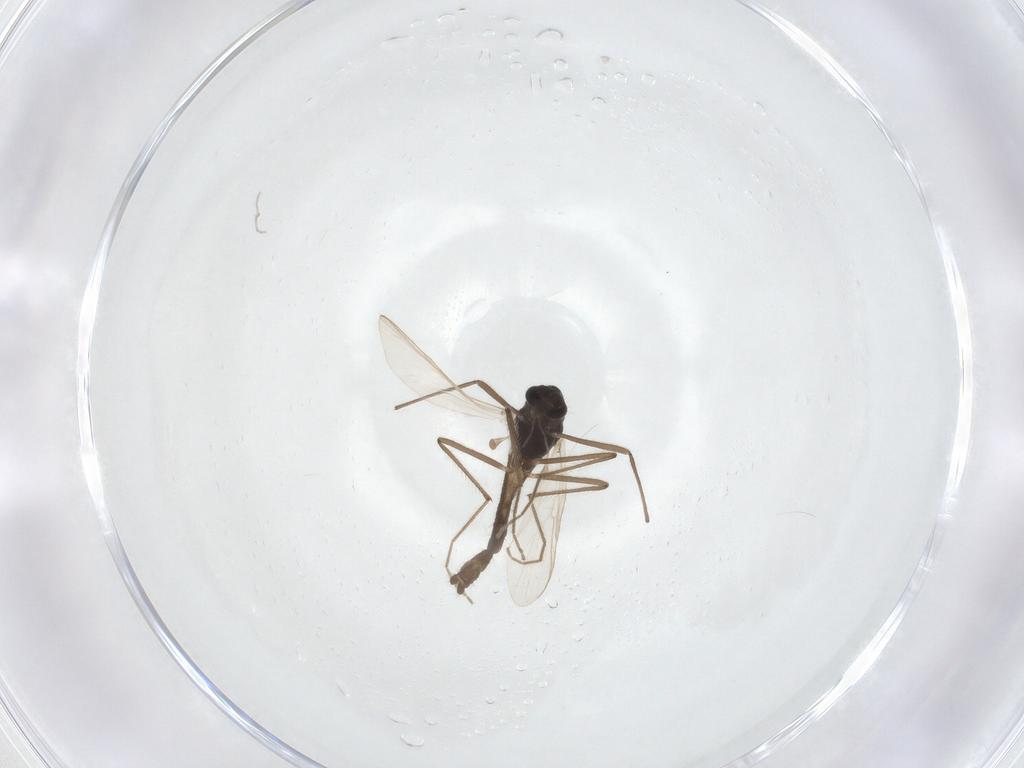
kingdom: Animalia
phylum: Arthropoda
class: Insecta
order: Diptera
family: Chironomidae
